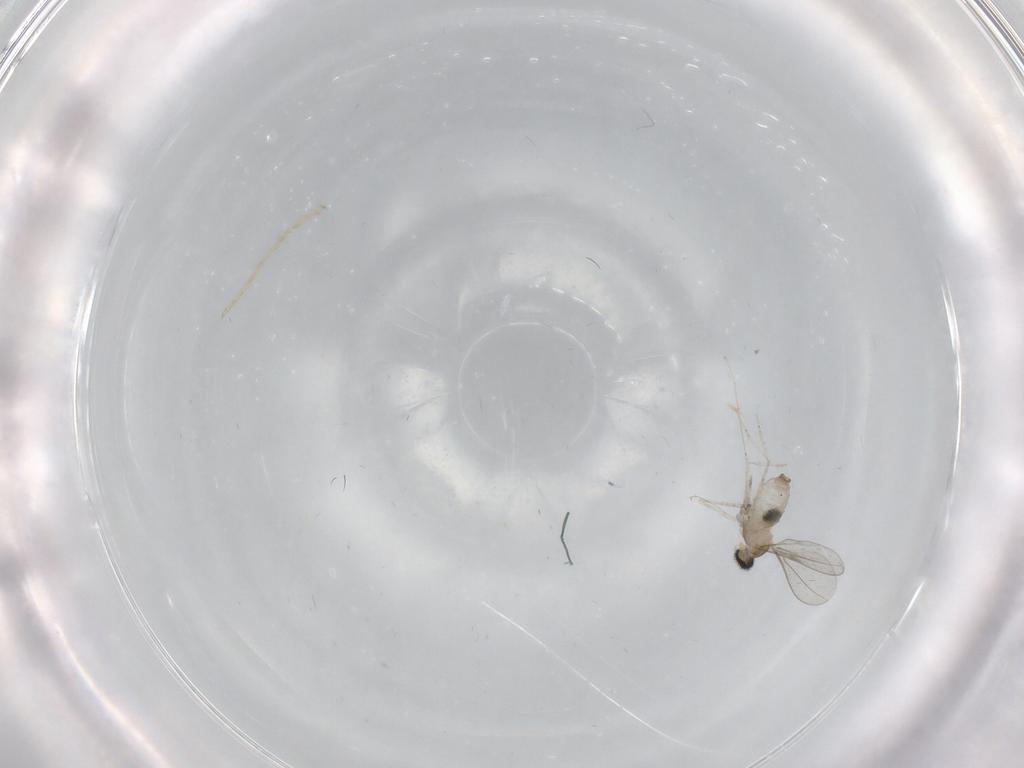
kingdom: Animalia
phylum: Arthropoda
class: Insecta
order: Diptera
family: Cecidomyiidae
